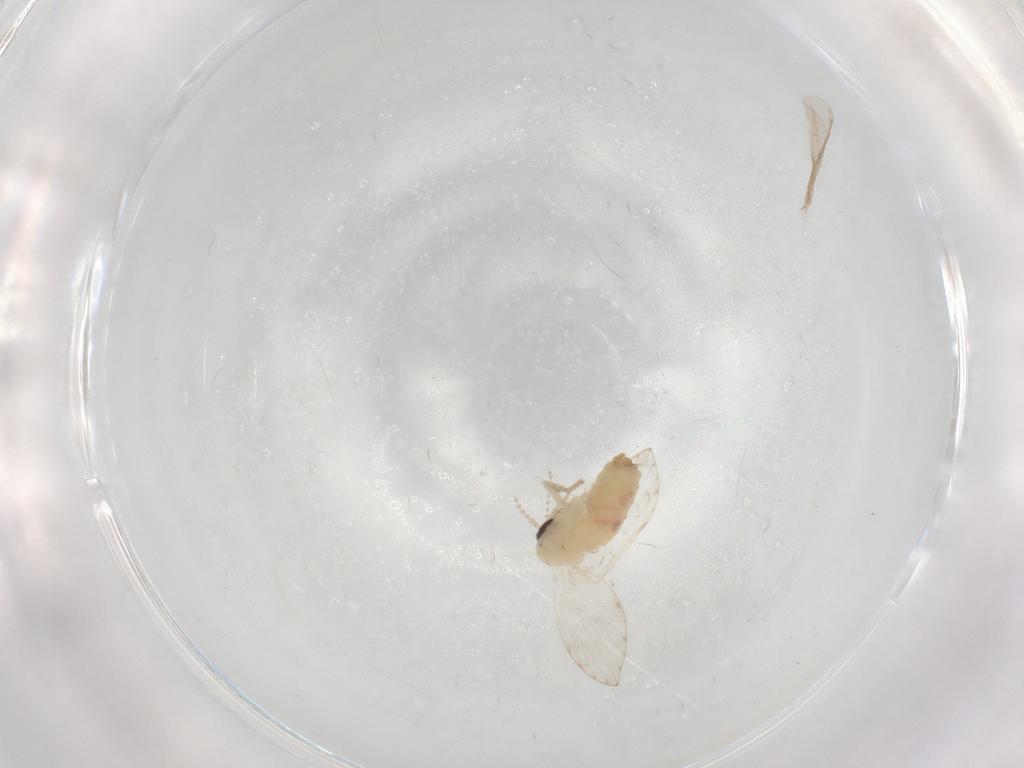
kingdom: Animalia
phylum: Arthropoda
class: Insecta
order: Diptera
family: Psychodidae
